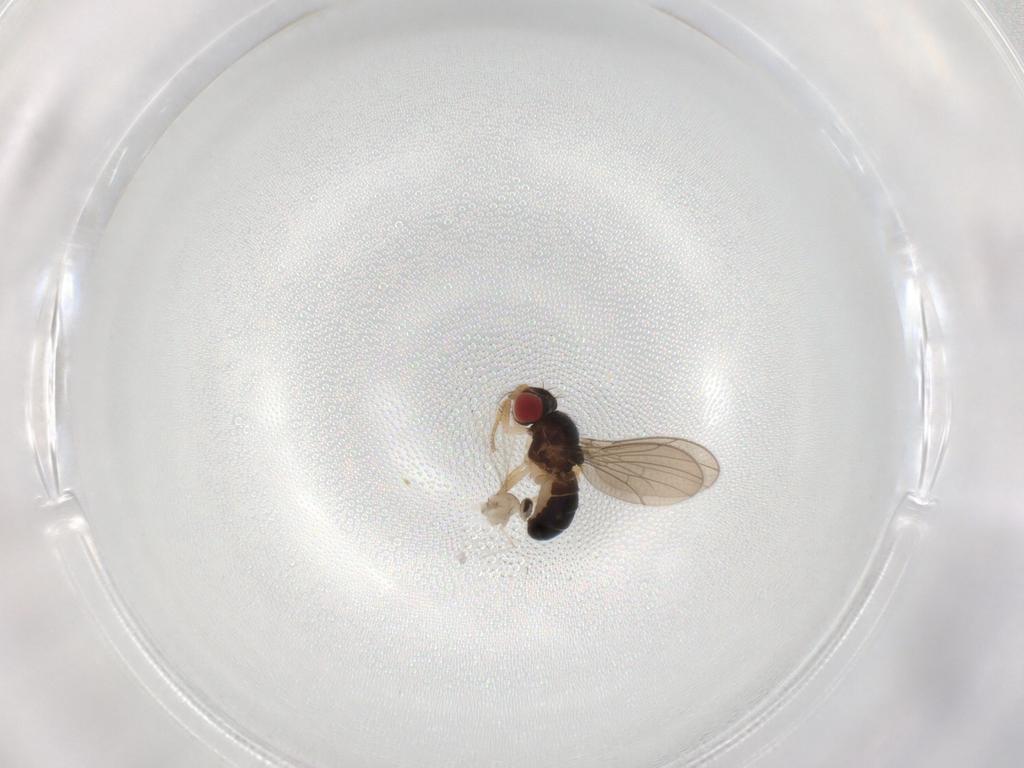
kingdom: Animalia
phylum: Arthropoda
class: Insecta
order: Diptera
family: Drosophilidae
